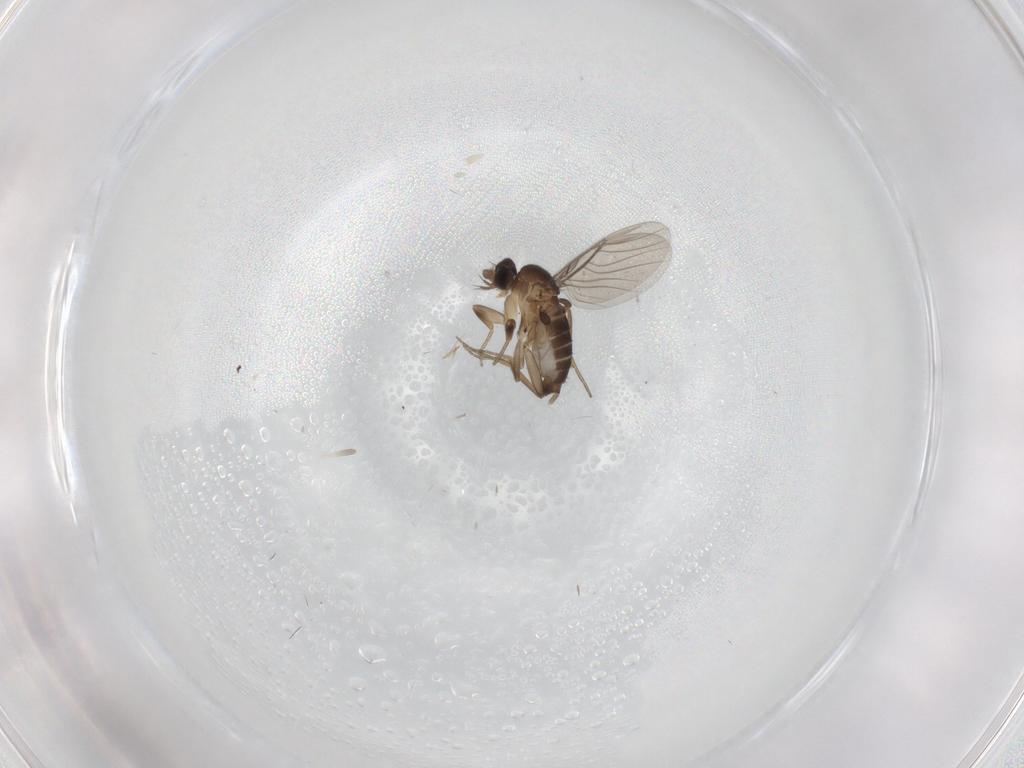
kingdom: Animalia
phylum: Arthropoda
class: Insecta
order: Diptera
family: Phoridae
